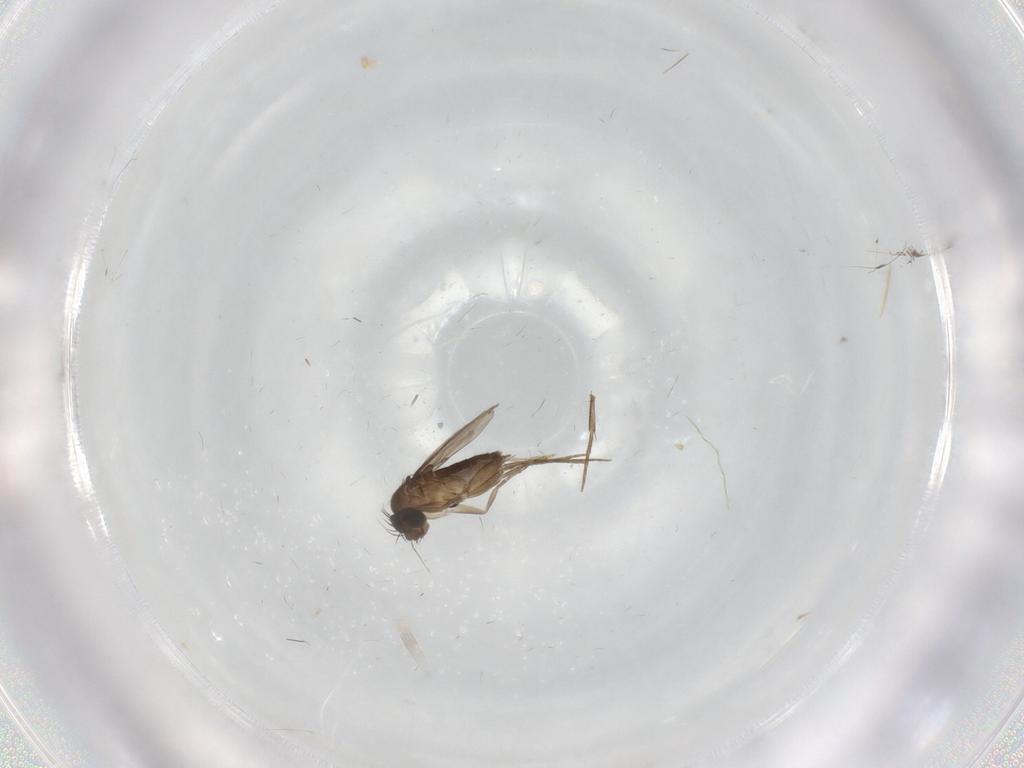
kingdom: Animalia
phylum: Arthropoda
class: Insecta
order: Diptera
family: Phoridae
